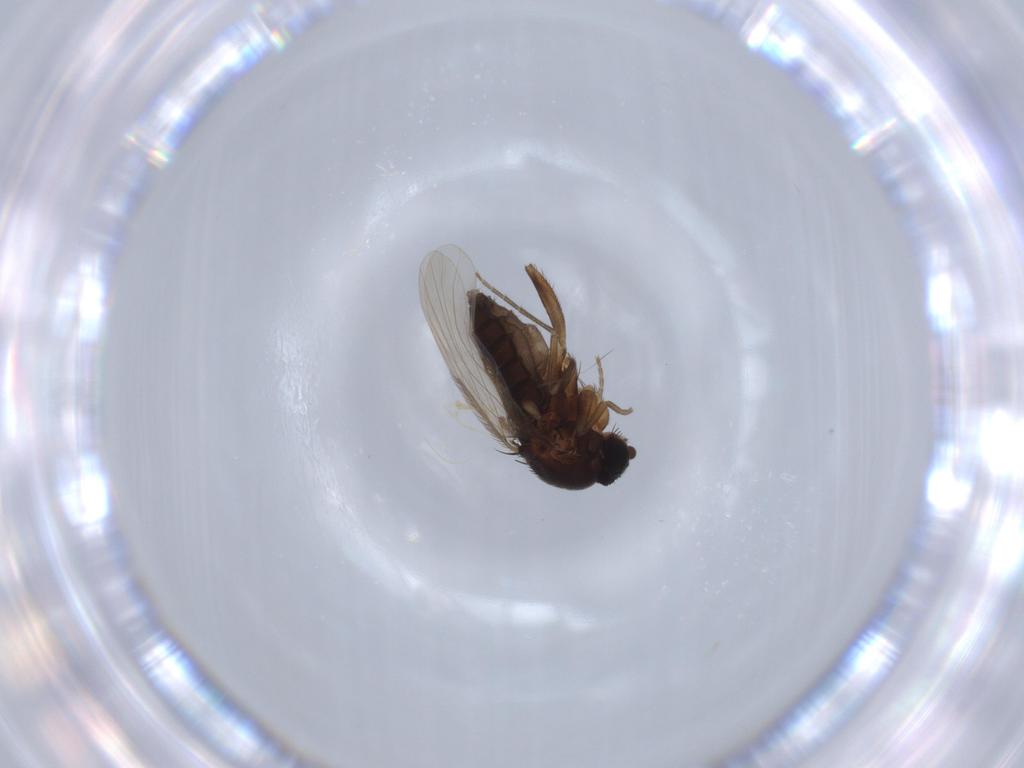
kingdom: Animalia
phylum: Arthropoda
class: Insecta
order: Diptera
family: Phoridae
